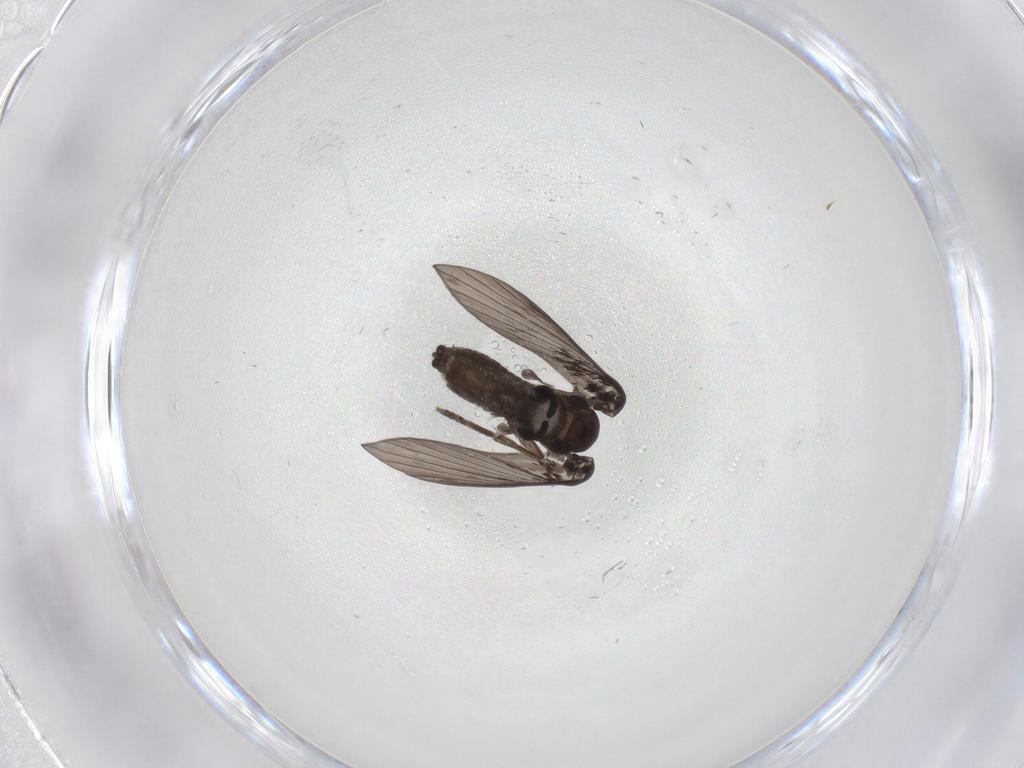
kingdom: Animalia
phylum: Arthropoda
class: Insecta
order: Diptera
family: Psychodidae
